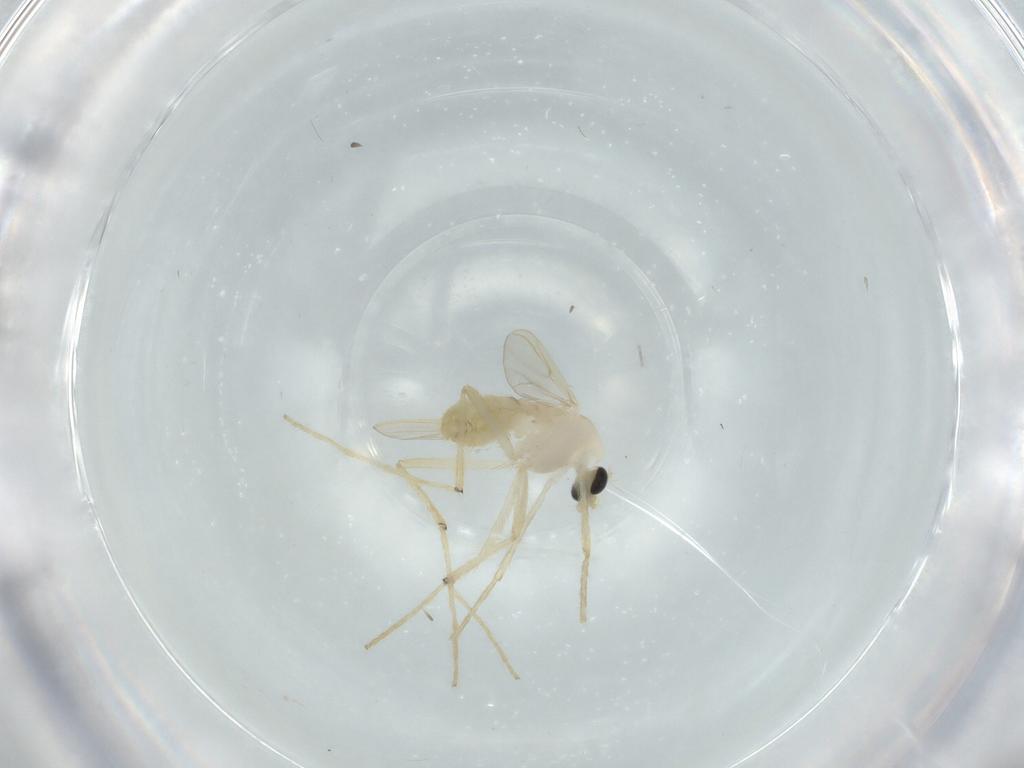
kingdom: Animalia
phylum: Arthropoda
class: Insecta
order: Diptera
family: Chironomidae
